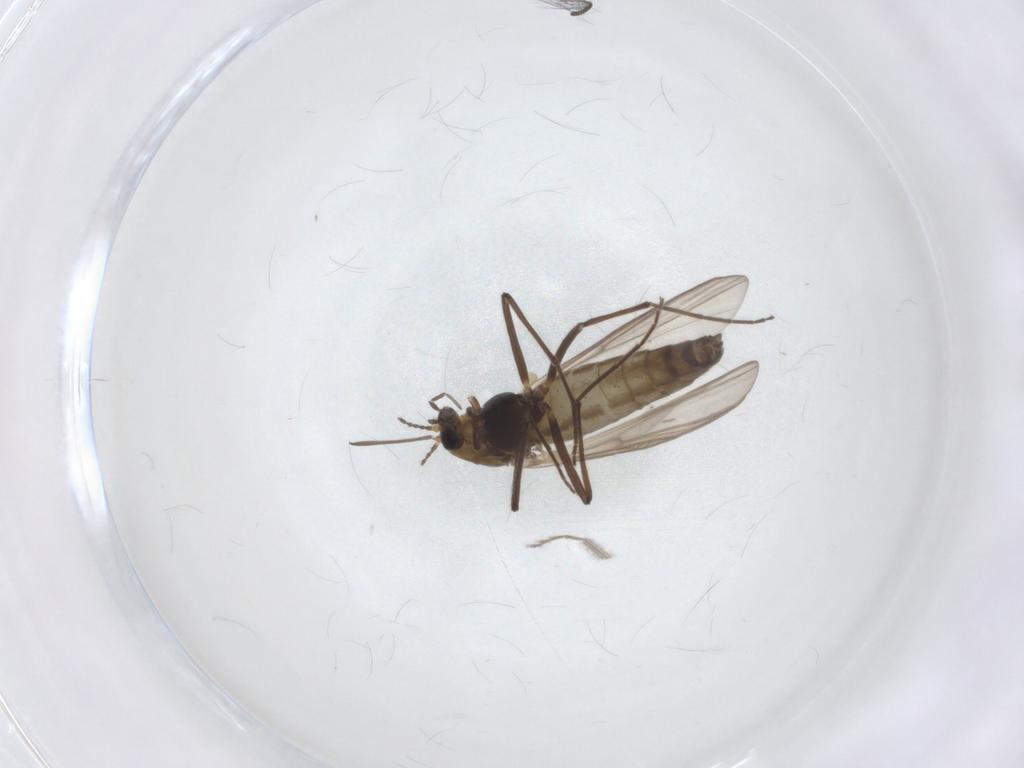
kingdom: Animalia
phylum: Arthropoda
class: Insecta
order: Diptera
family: Chironomidae
